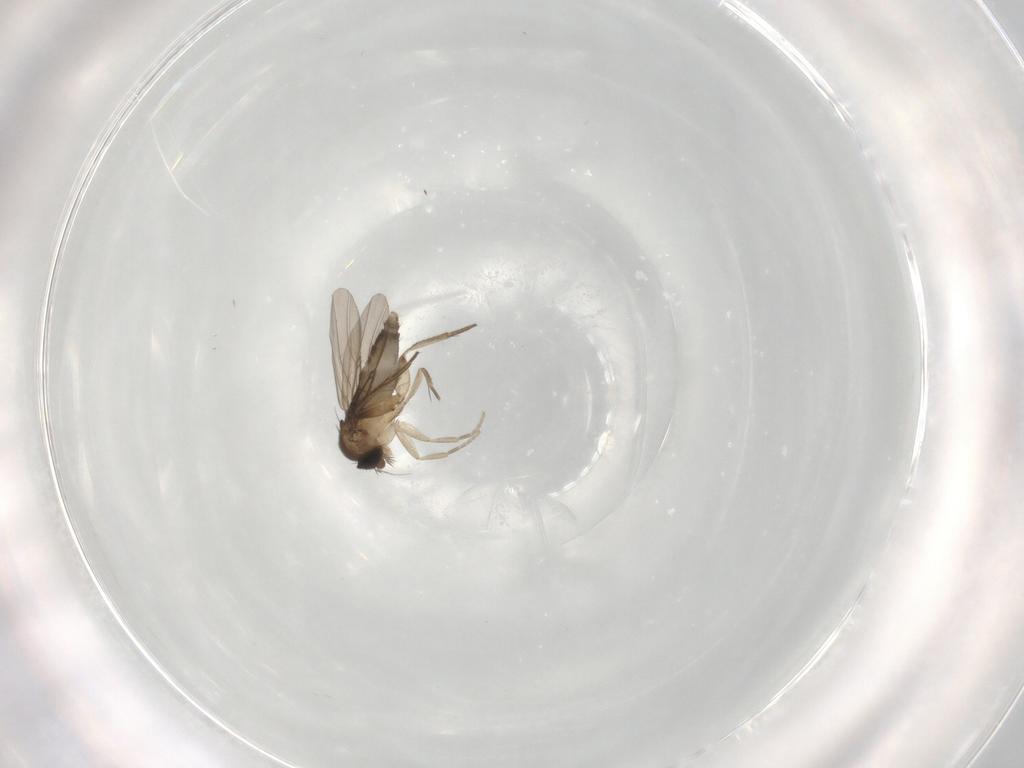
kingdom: Animalia
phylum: Arthropoda
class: Insecta
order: Diptera
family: Phoridae
